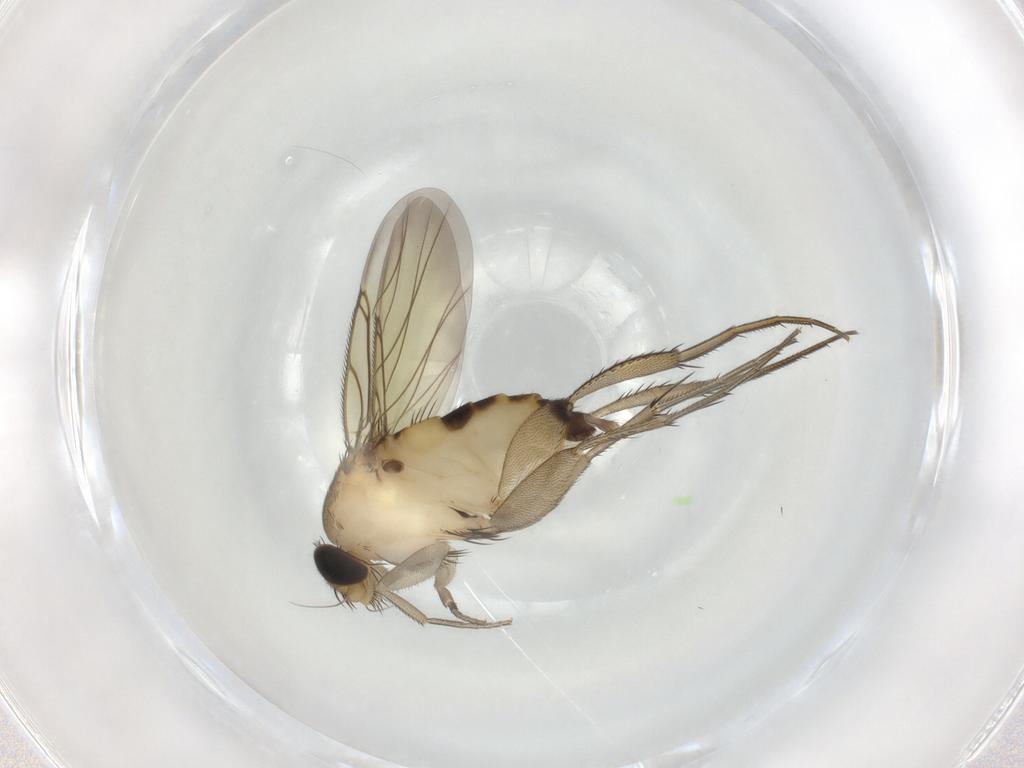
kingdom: Animalia
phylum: Arthropoda
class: Insecta
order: Diptera
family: Phoridae
